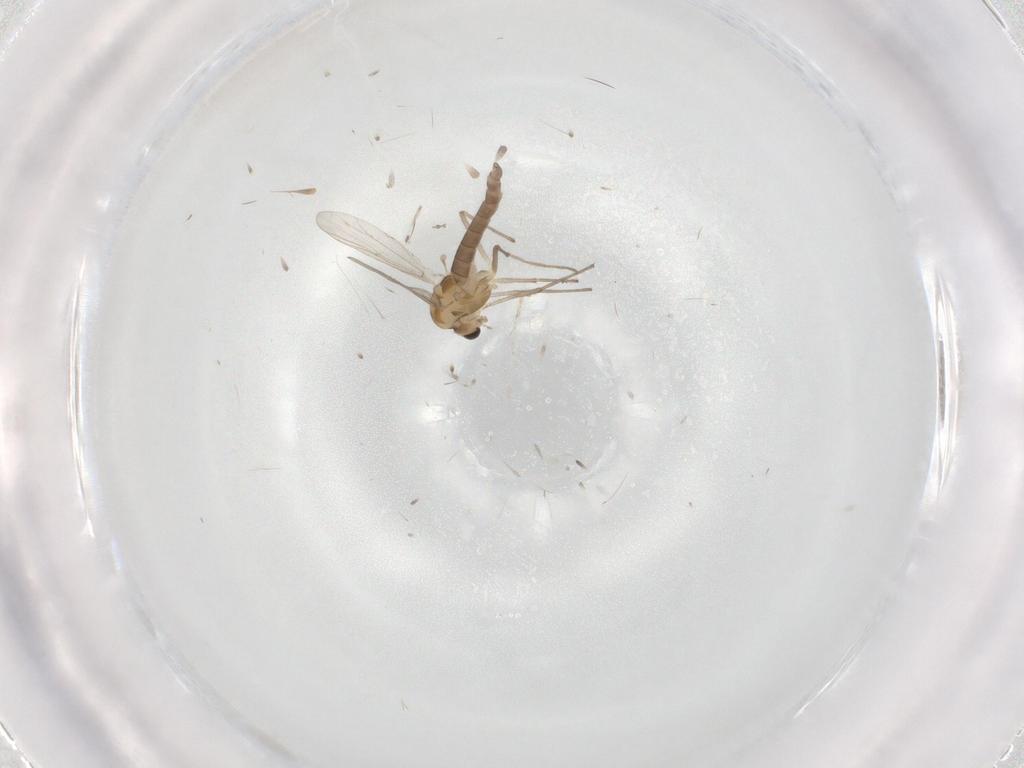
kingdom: Animalia
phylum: Arthropoda
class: Insecta
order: Diptera
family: Chironomidae
